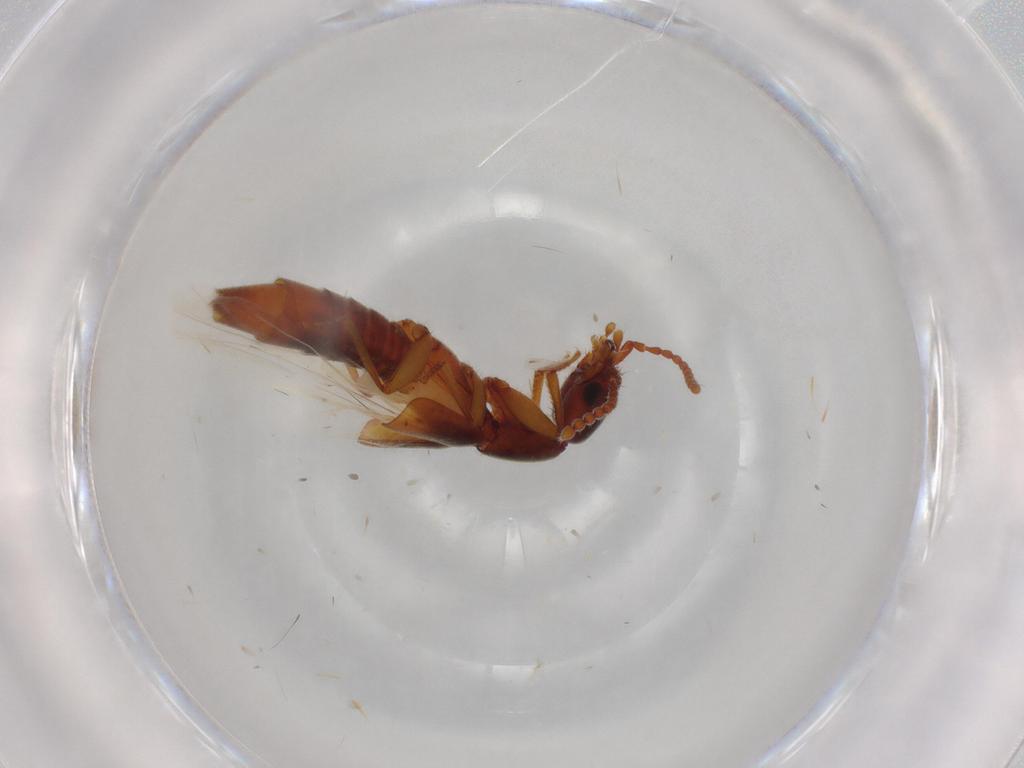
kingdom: Animalia
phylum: Arthropoda
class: Insecta
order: Coleoptera
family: Staphylinidae
